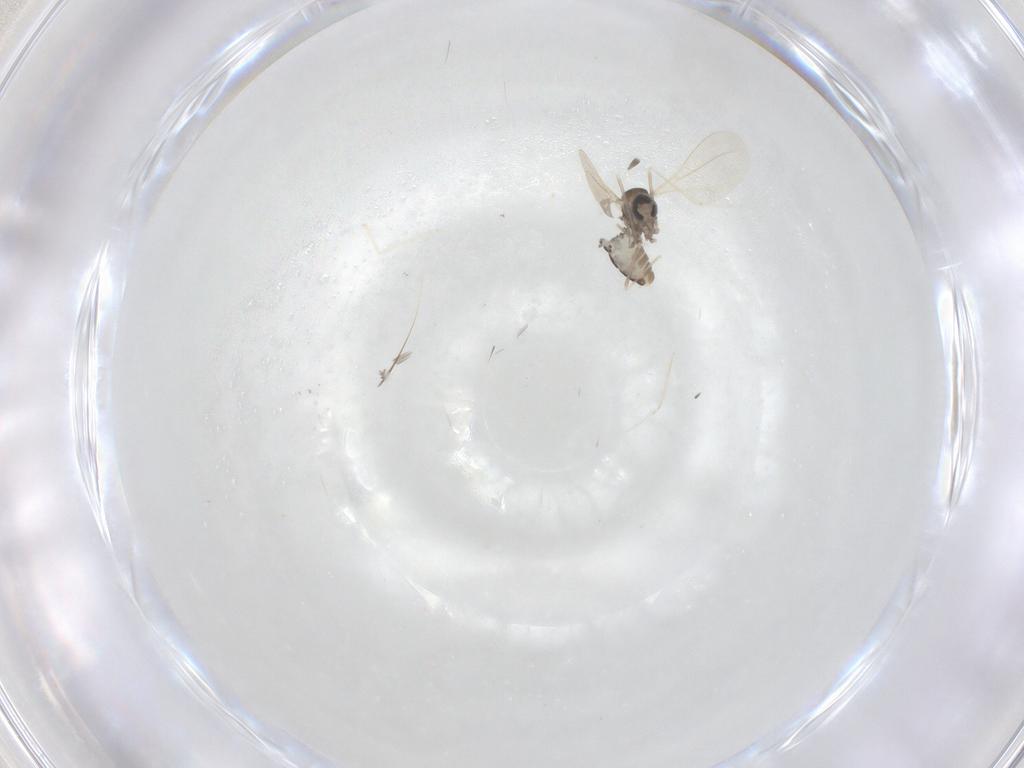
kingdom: Animalia
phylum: Arthropoda
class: Insecta
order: Diptera
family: Cecidomyiidae
